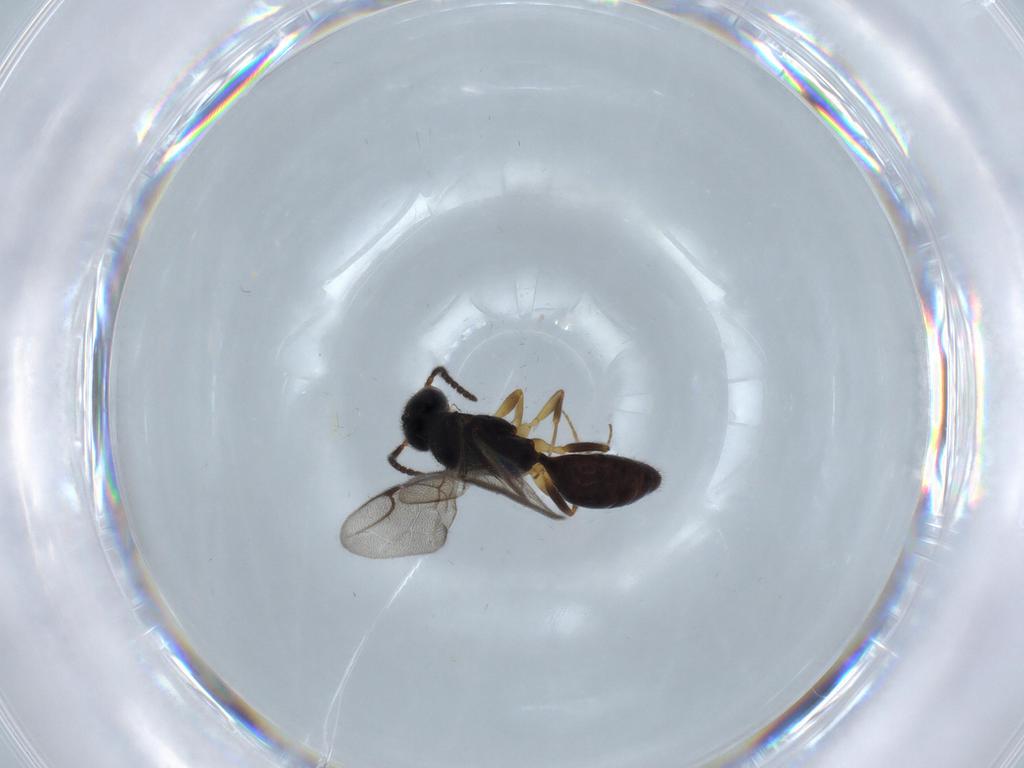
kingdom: Animalia
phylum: Arthropoda
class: Insecta
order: Hymenoptera
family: Bethylidae
